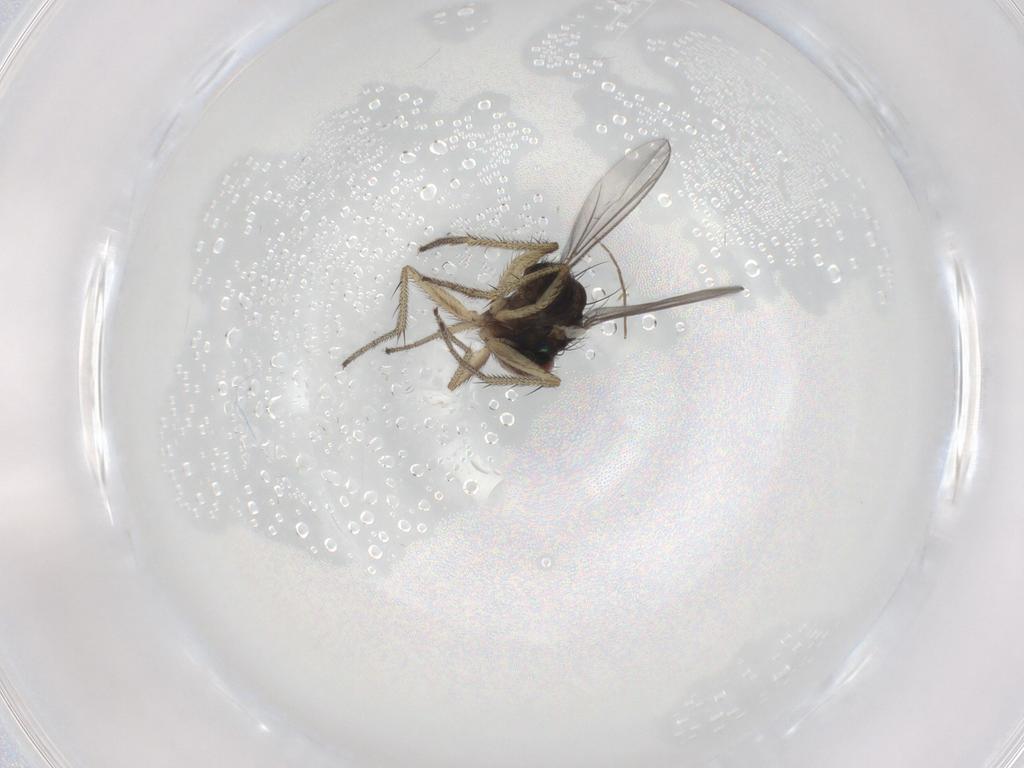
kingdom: Animalia
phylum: Arthropoda
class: Insecta
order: Diptera
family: Dolichopodidae
